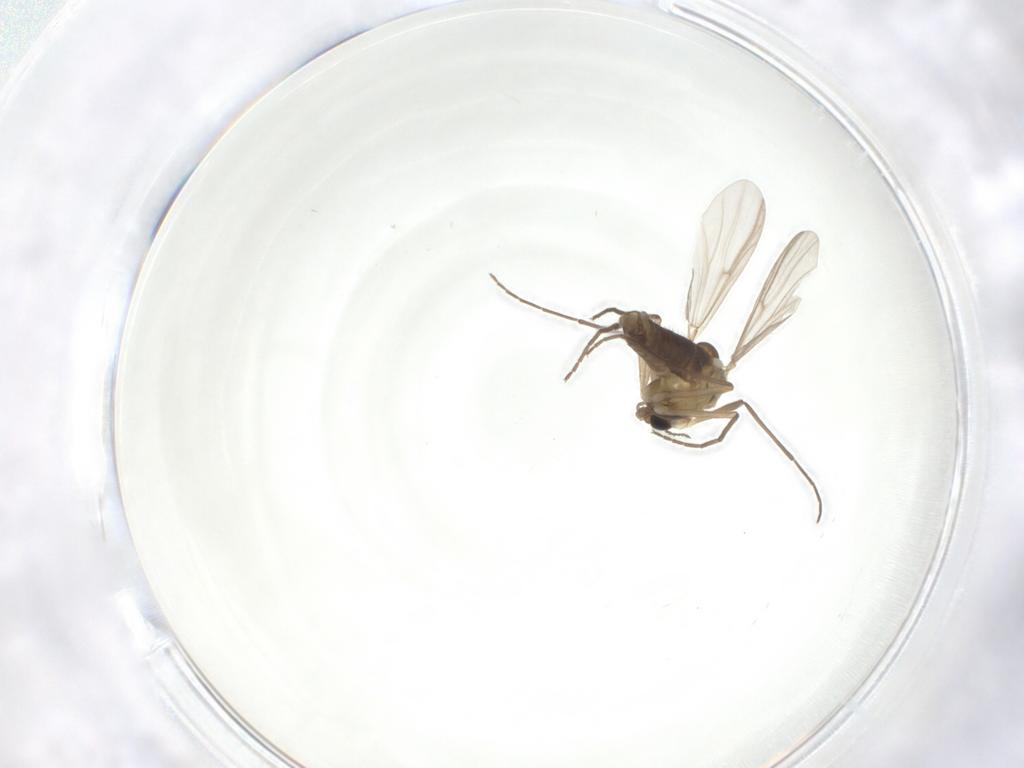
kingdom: Animalia
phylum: Arthropoda
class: Insecta
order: Diptera
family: Chironomidae
